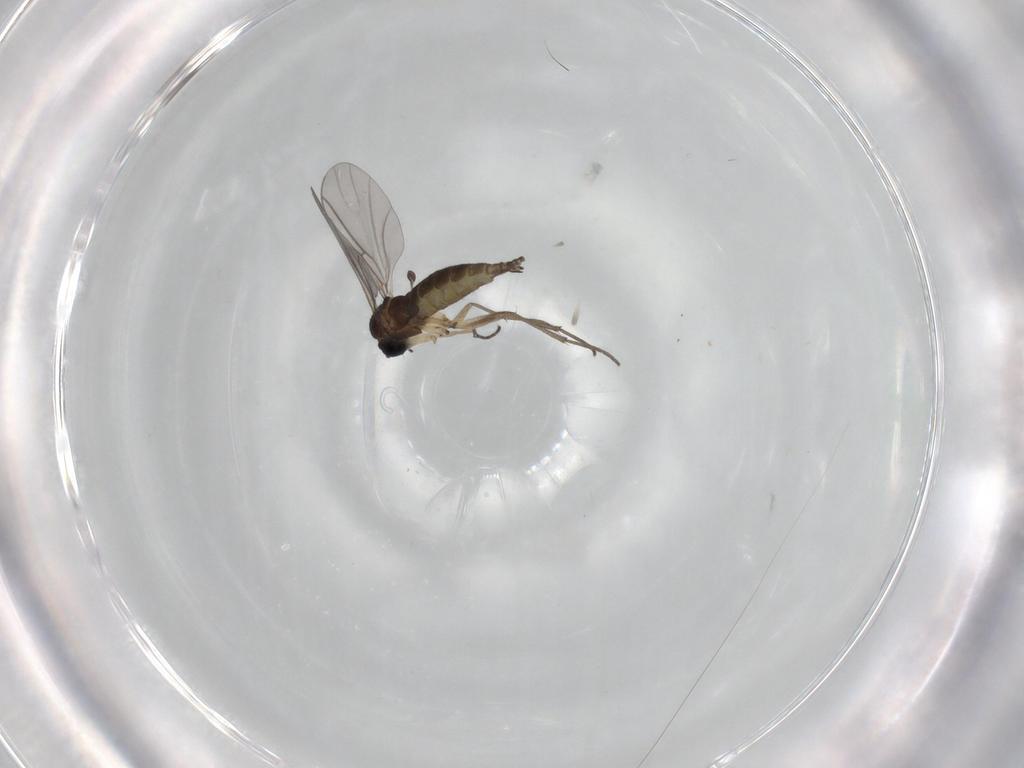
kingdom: Animalia
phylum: Arthropoda
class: Insecta
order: Diptera
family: Sciaridae
